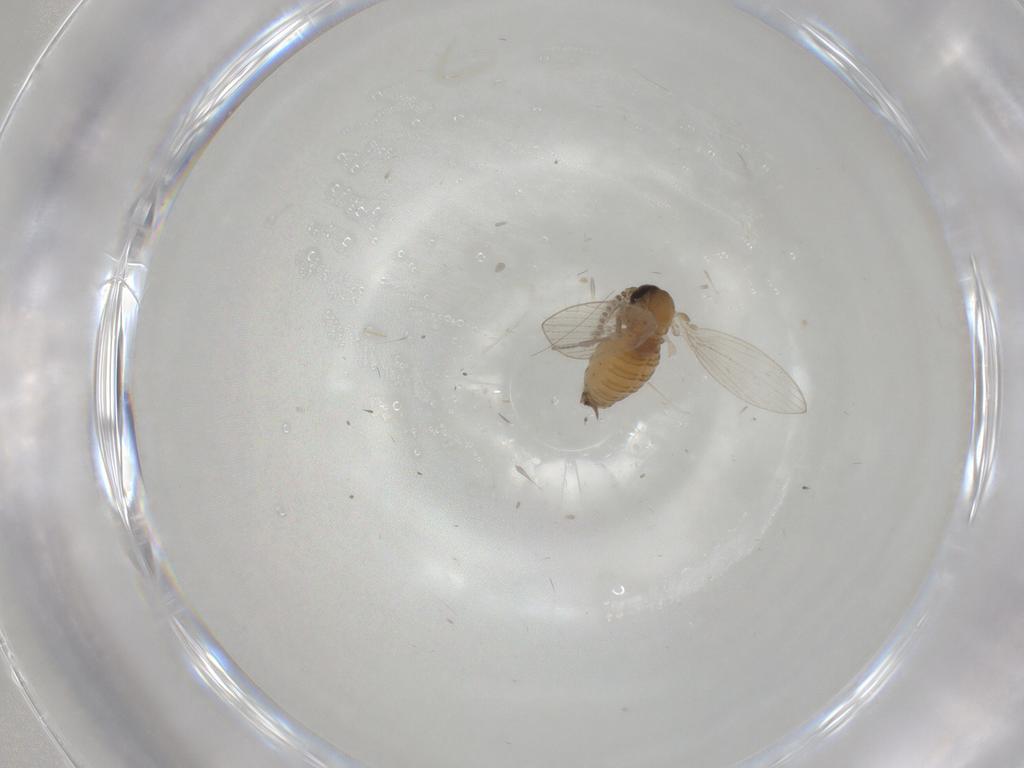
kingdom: Animalia
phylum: Arthropoda
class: Insecta
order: Diptera
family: Psychodidae
